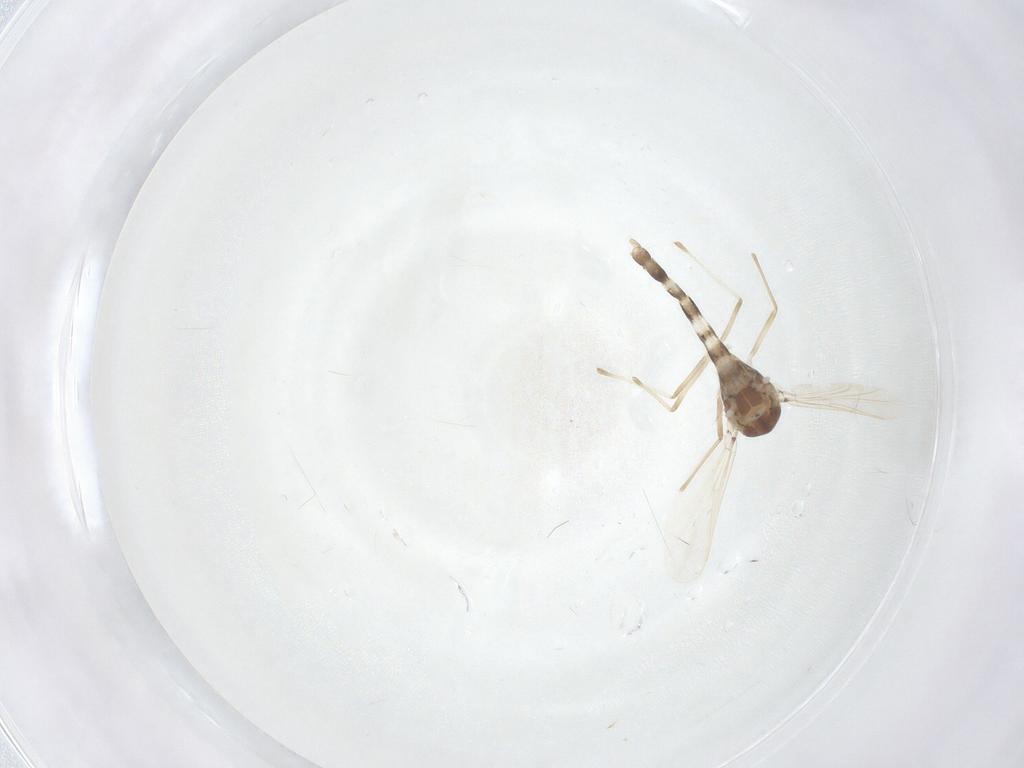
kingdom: Animalia
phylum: Arthropoda
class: Insecta
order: Diptera
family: Chironomidae
